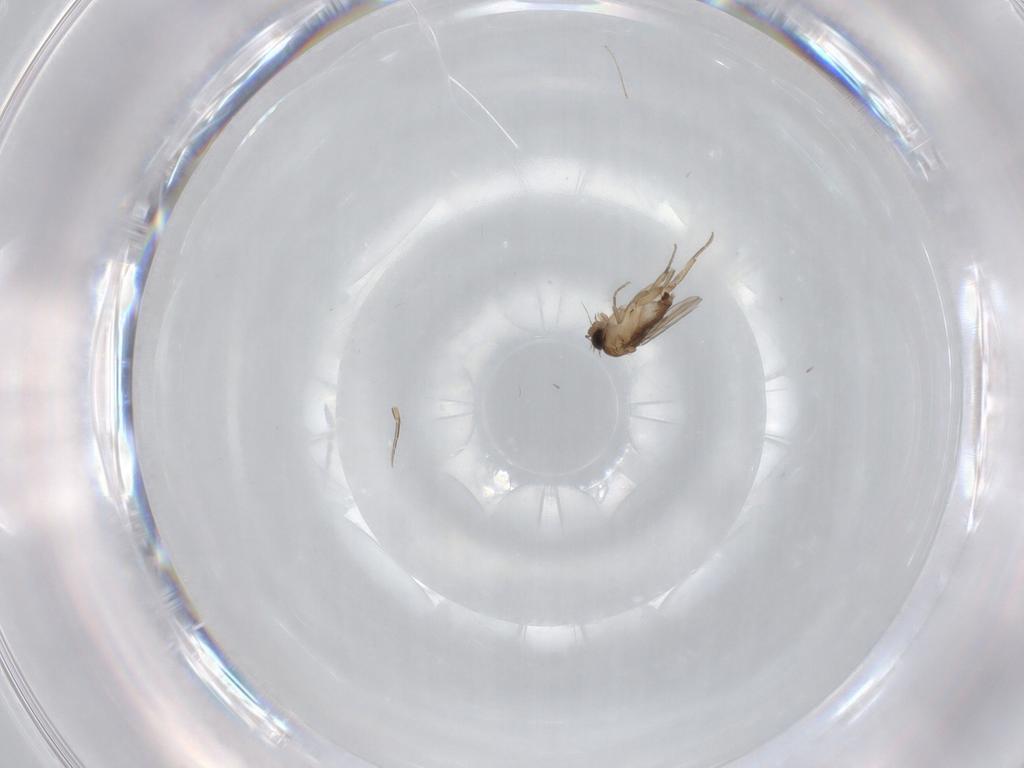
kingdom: Animalia
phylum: Arthropoda
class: Insecta
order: Diptera
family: Phoridae
